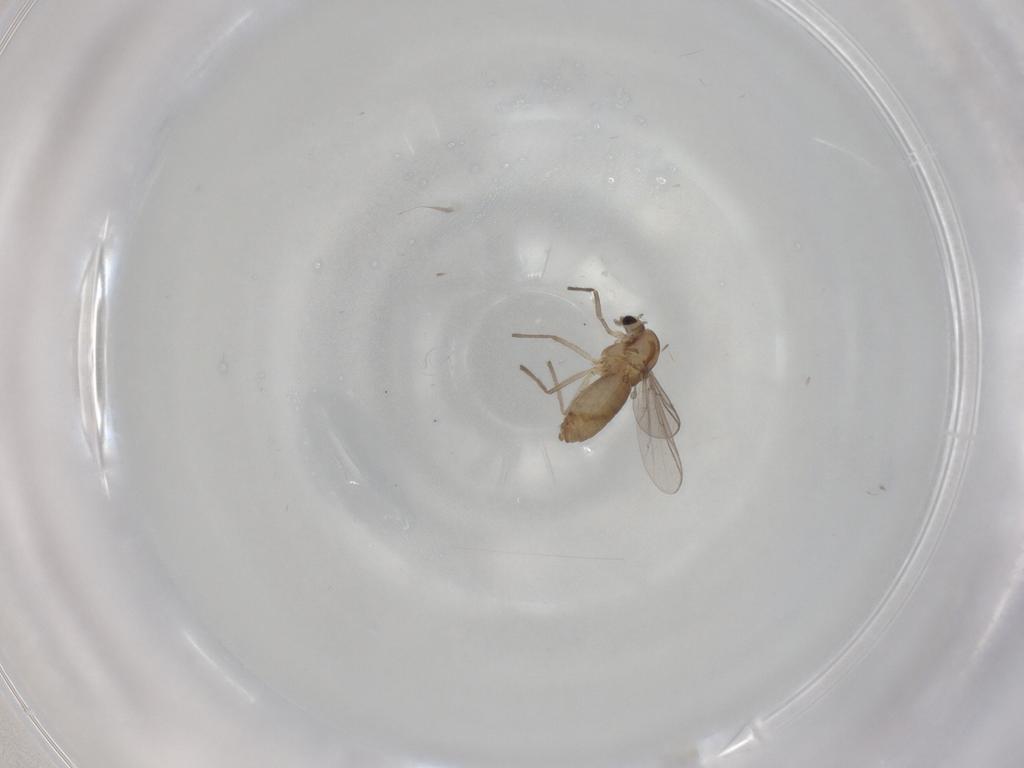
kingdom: Animalia
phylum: Arthropoda
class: Insecta
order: Diptera
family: Chironomidae
